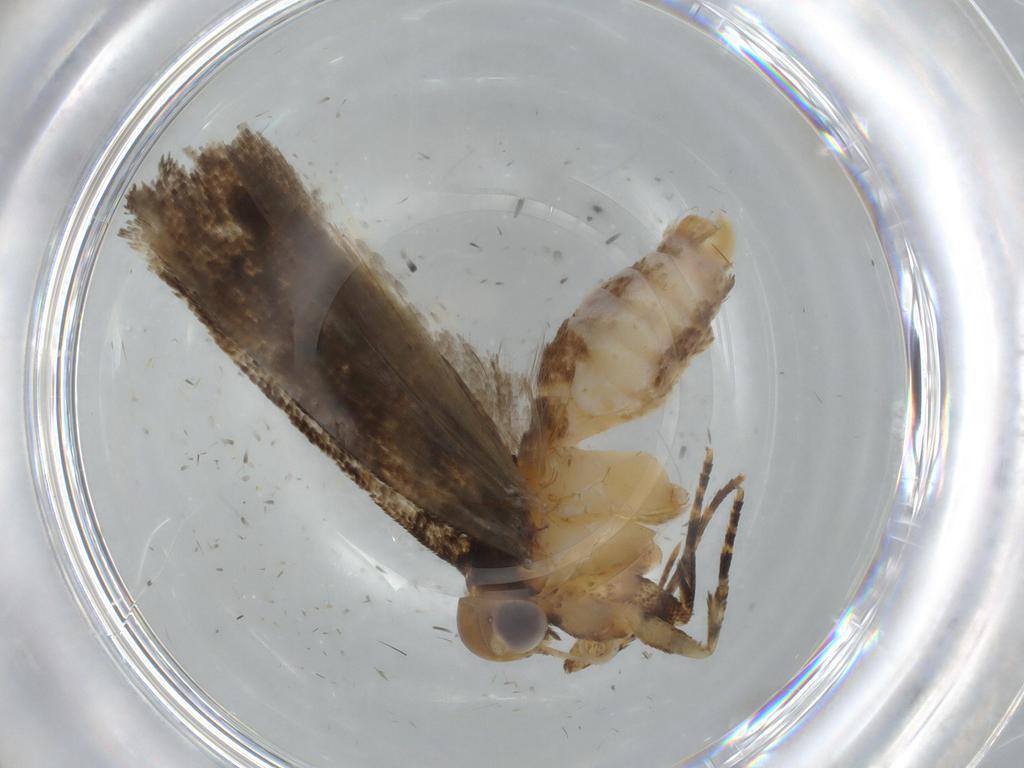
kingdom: Animalia
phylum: Arthropoda
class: Insecta
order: Lepidoptera
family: Gelechiidae
